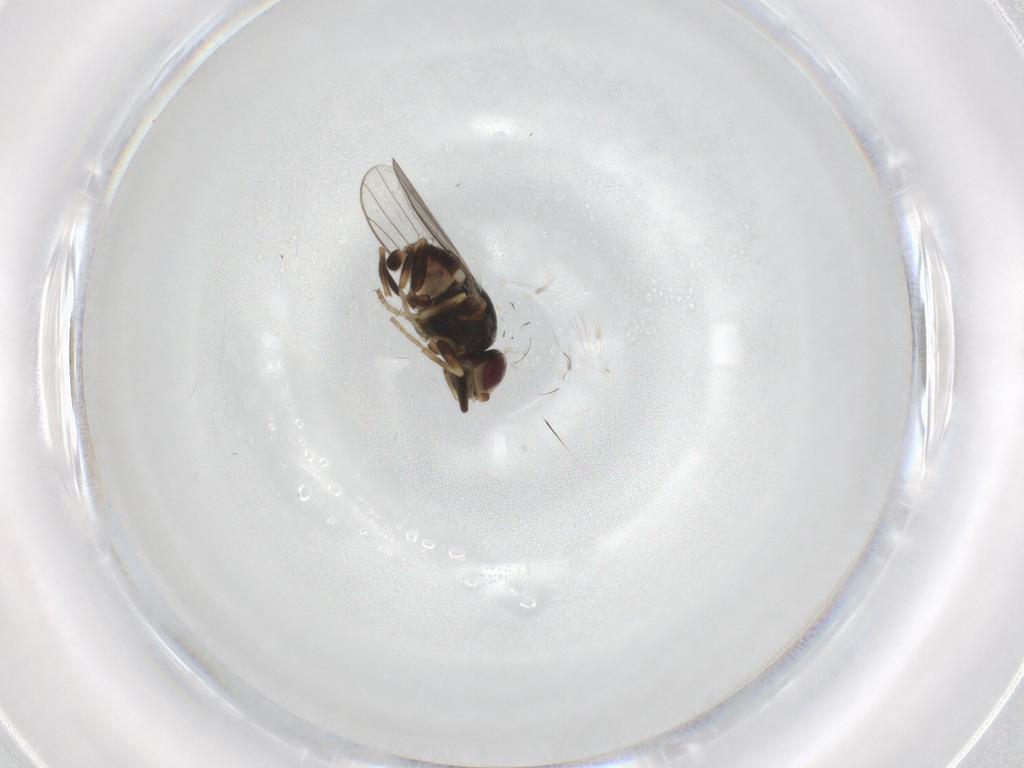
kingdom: Animalia
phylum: Arthropoda
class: Insecta
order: Diptera
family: Chloropidae
